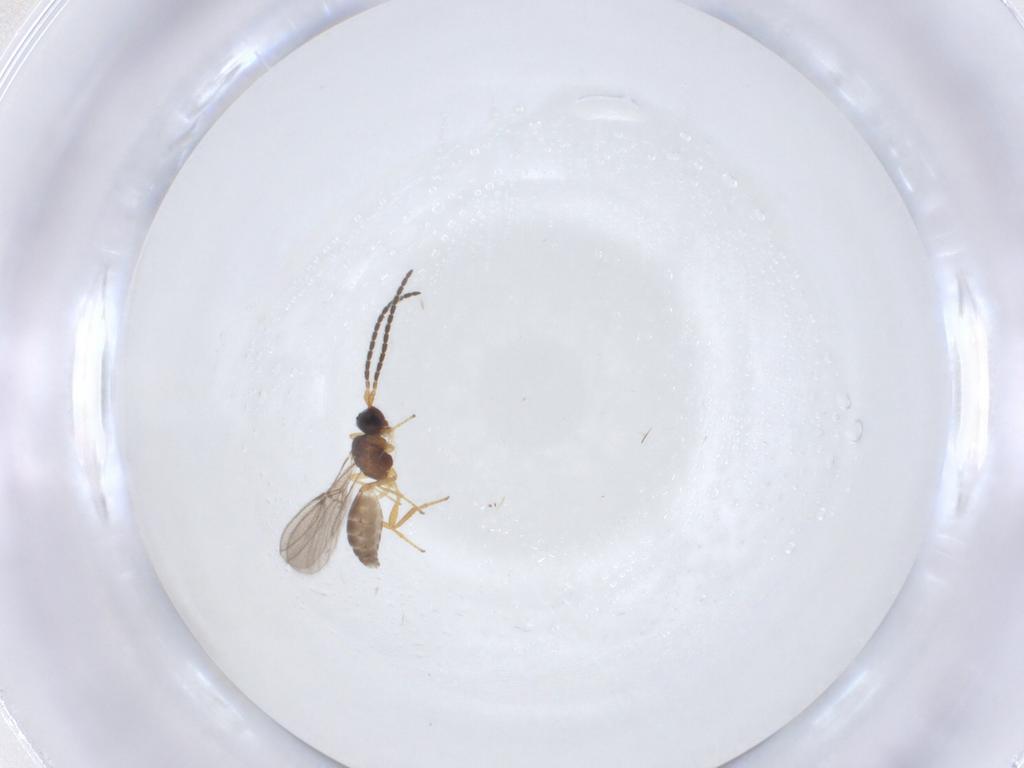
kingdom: Animalia
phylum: Arthropoda
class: Insecta
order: Hymenoptera
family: Braconidae
